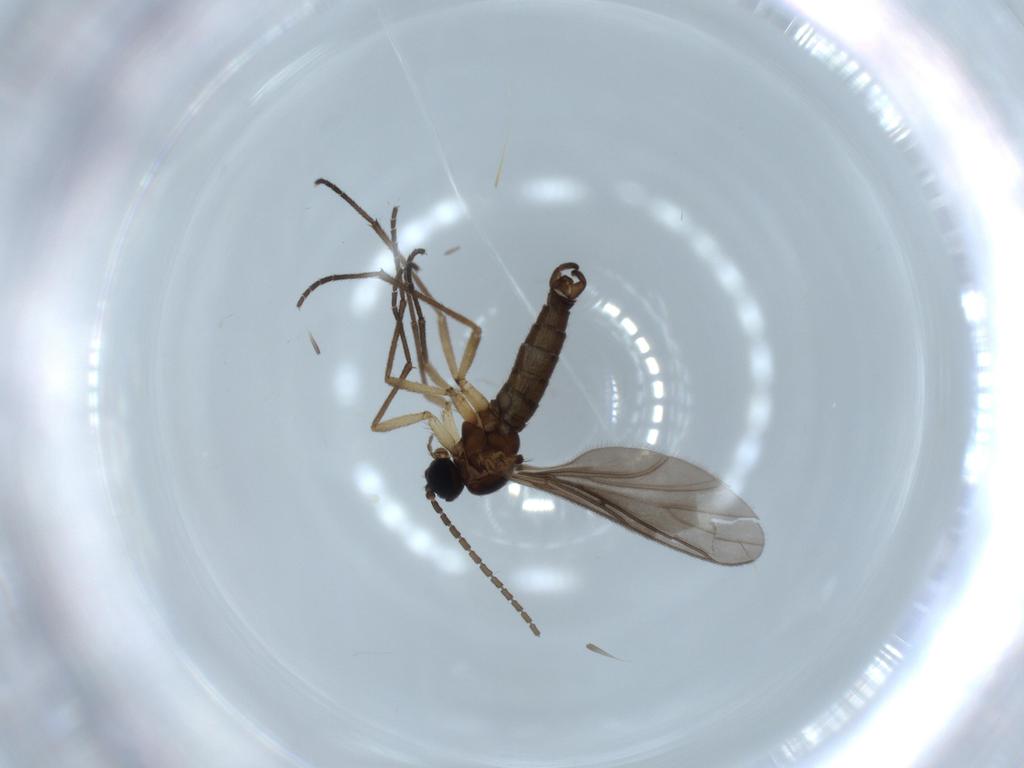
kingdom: Animalia
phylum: Arthropoda
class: Insecta
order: Diptera
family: Sciaridae
